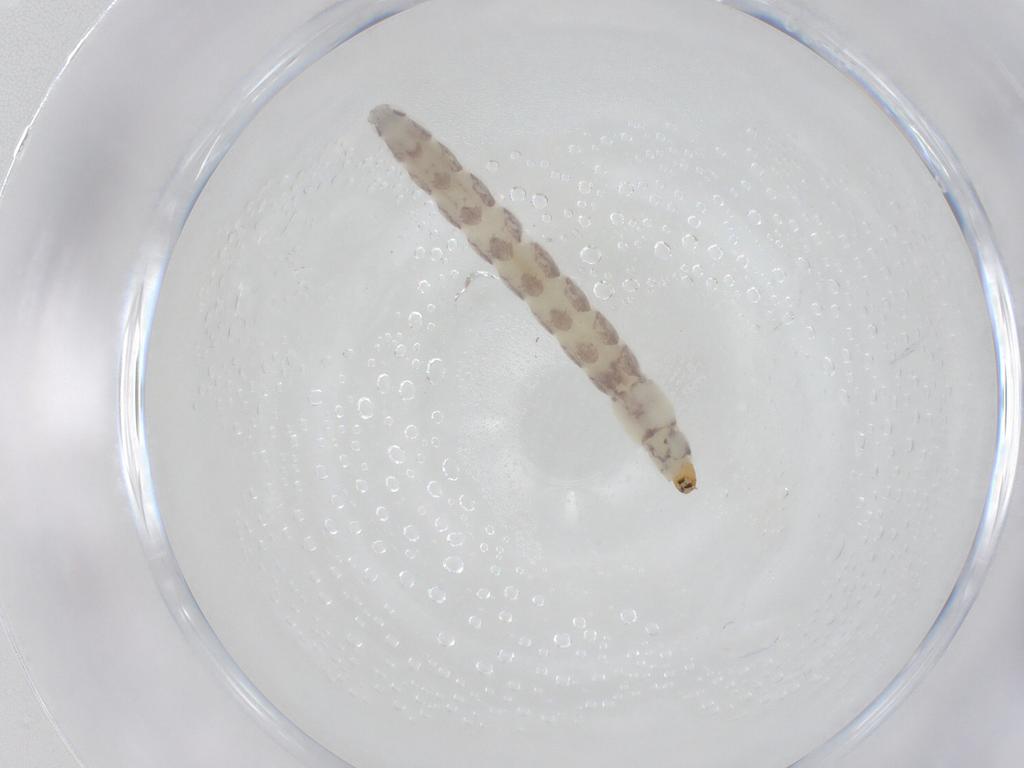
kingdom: Animalia
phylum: Arthropoda
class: Insecta
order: Diptera
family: Chironomidae
